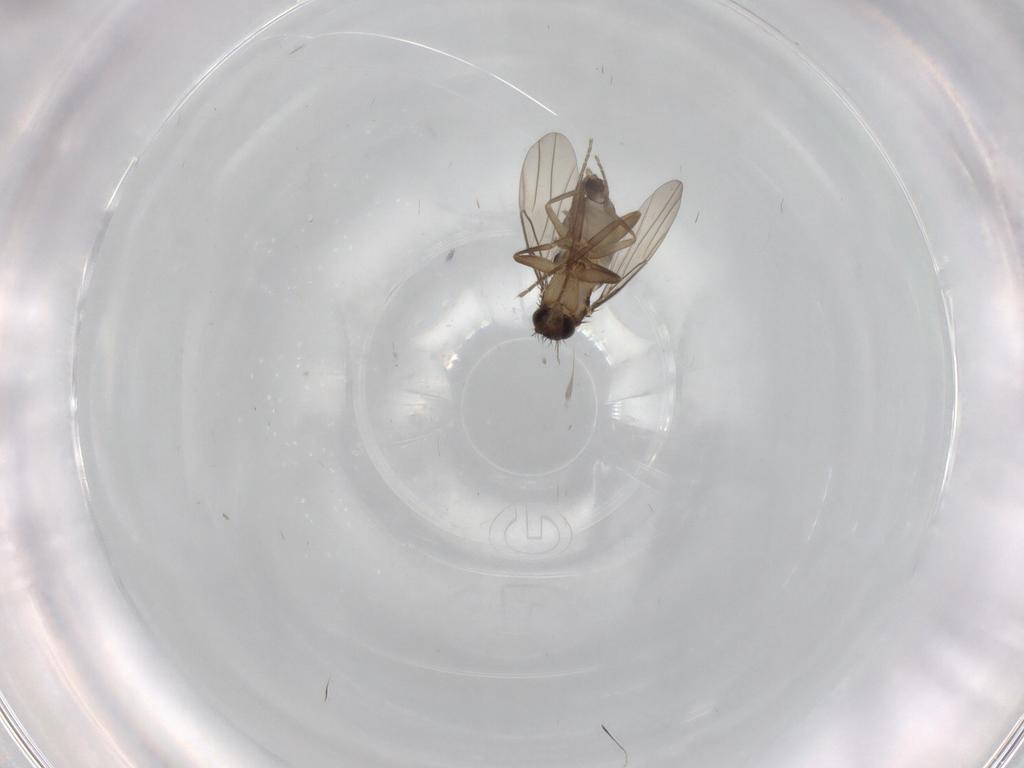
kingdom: Animalia
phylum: Arthropoda
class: Insecta
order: Diptera
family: Phoridae
